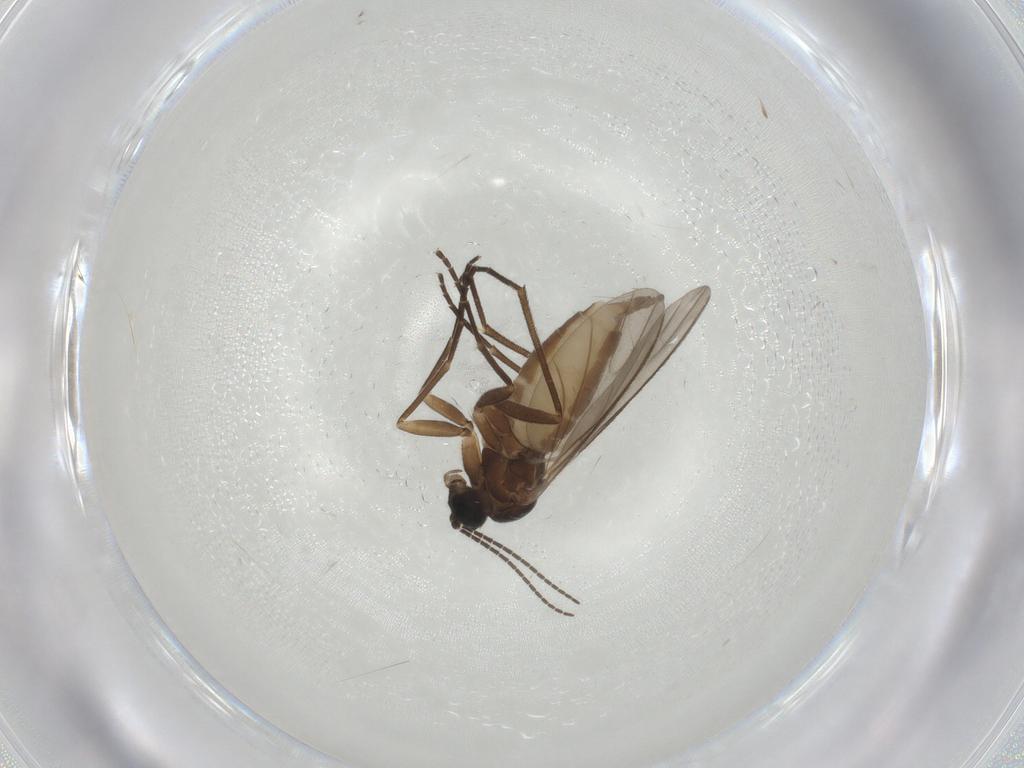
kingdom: Animalia
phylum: Arthropoda
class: Insecta
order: Diptera
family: Sciaridae
